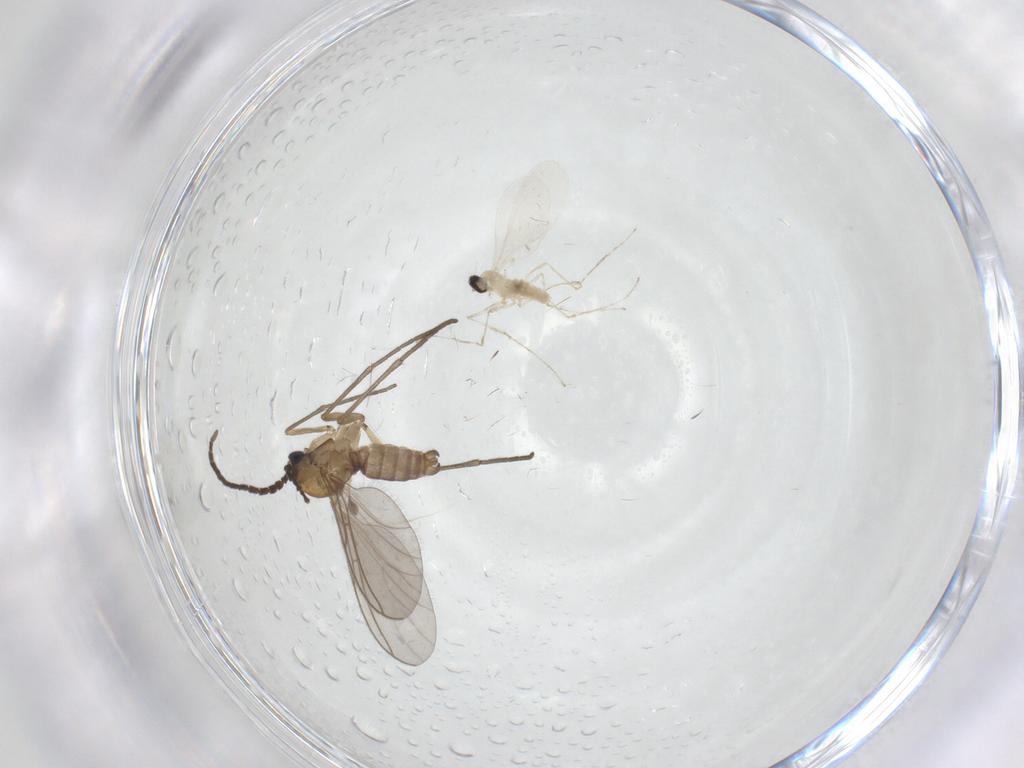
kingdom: Animalia
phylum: Arthropoda
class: Insecta
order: Diptera
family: Sciaridae
